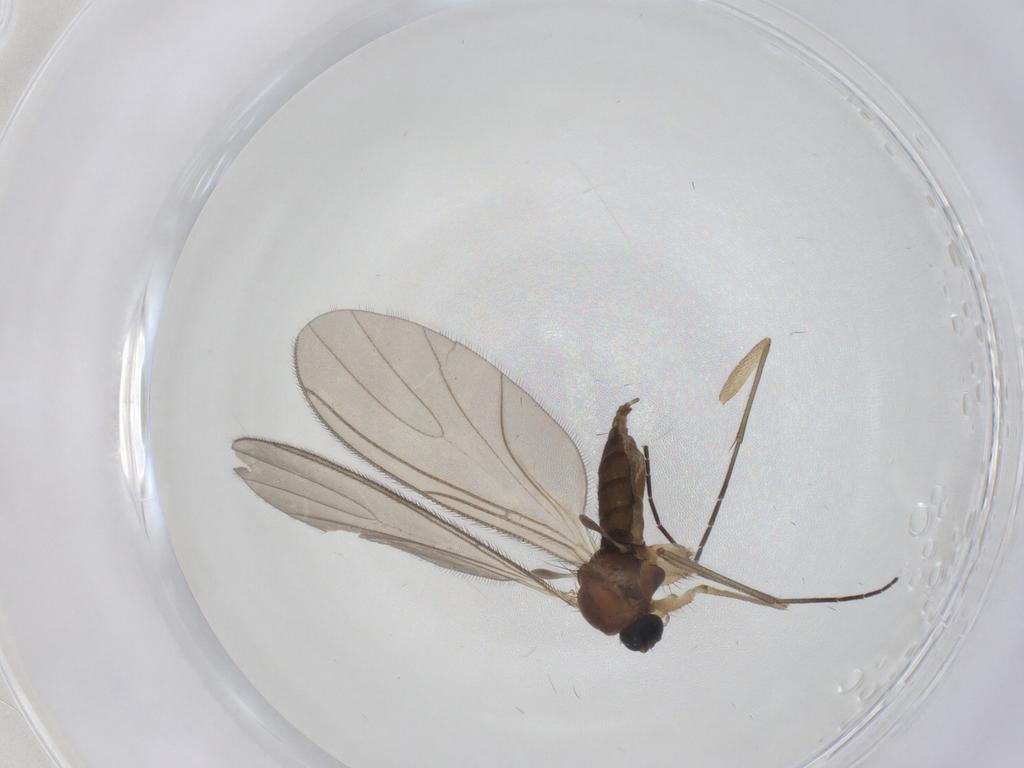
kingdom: Animalia
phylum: Arthropoda
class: Insecta
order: Diptera
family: Sciaridae
